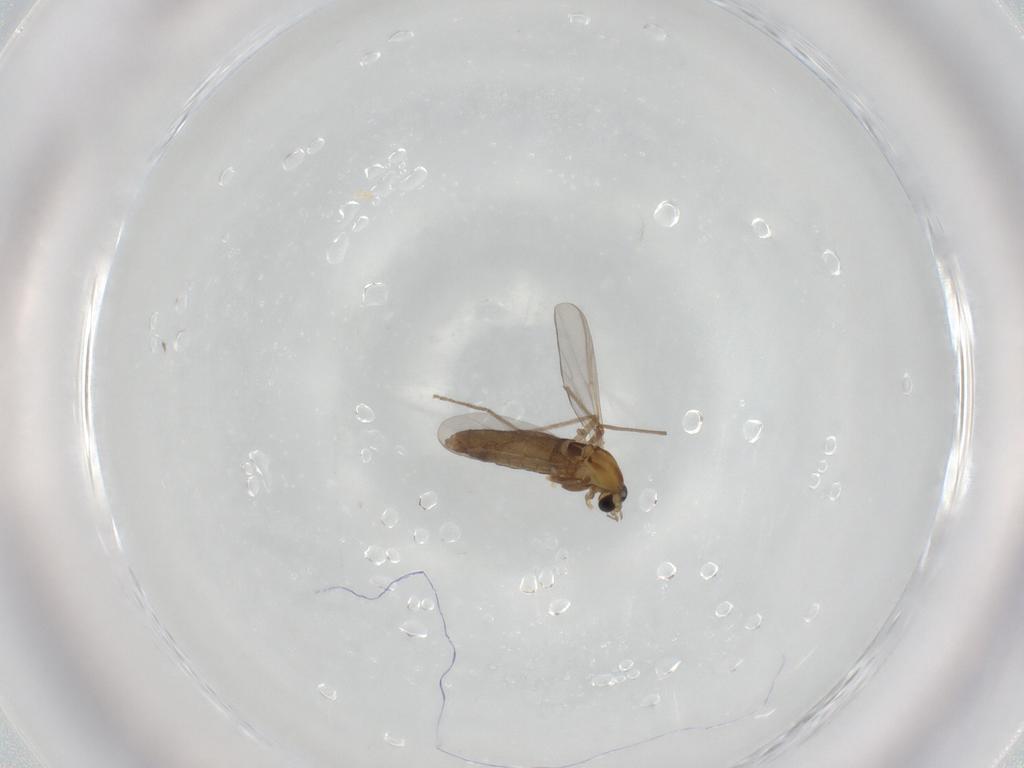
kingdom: Animalia
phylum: Arthropoda
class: Insecta
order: Diptera
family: Chironomidae
